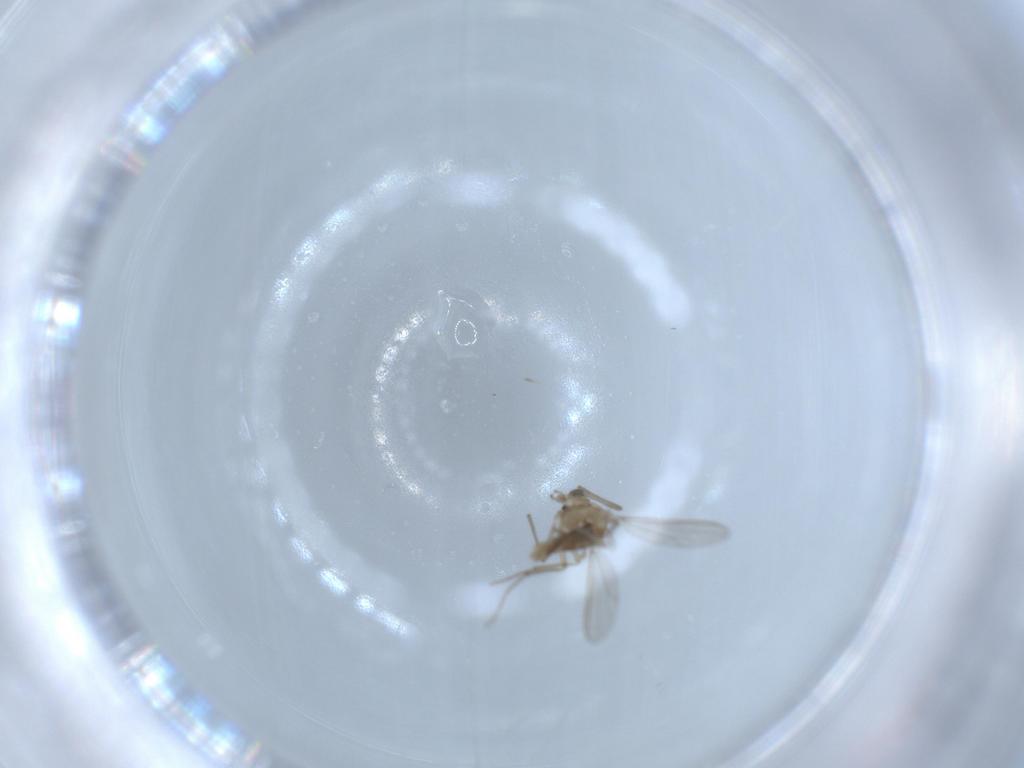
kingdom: Animalia
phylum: Arthropoda
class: Insecta
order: Diptera
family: Chironomidae
